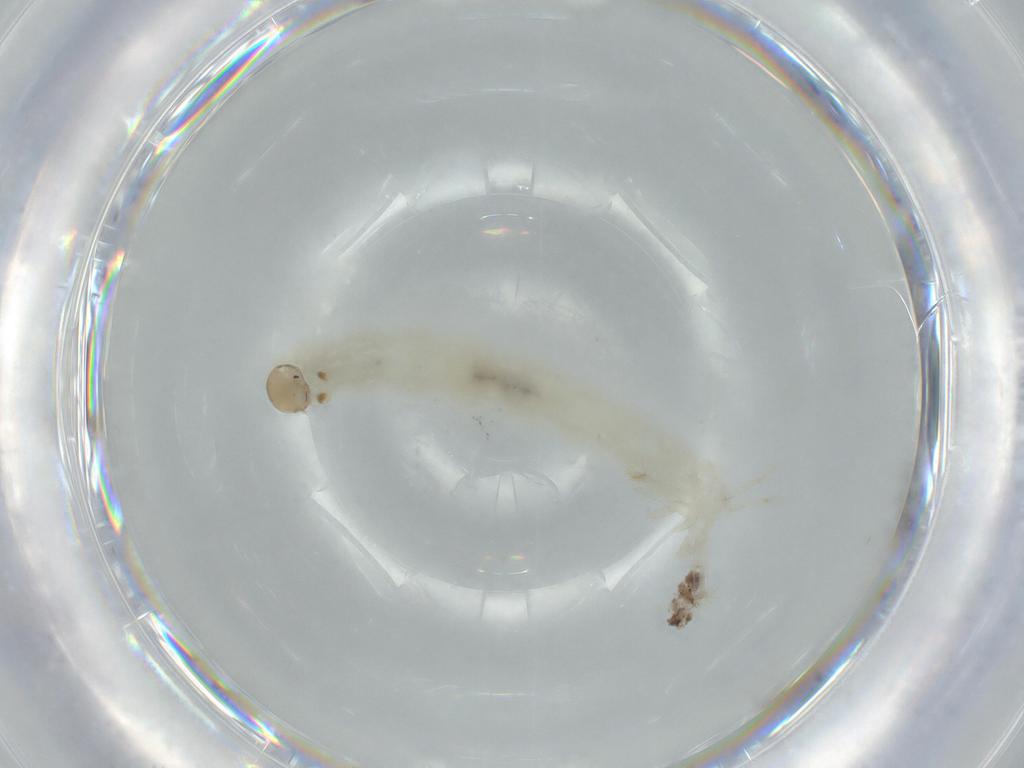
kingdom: Animalia
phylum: Arthropoda
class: Insecta
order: Diptera
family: Chironomidae
